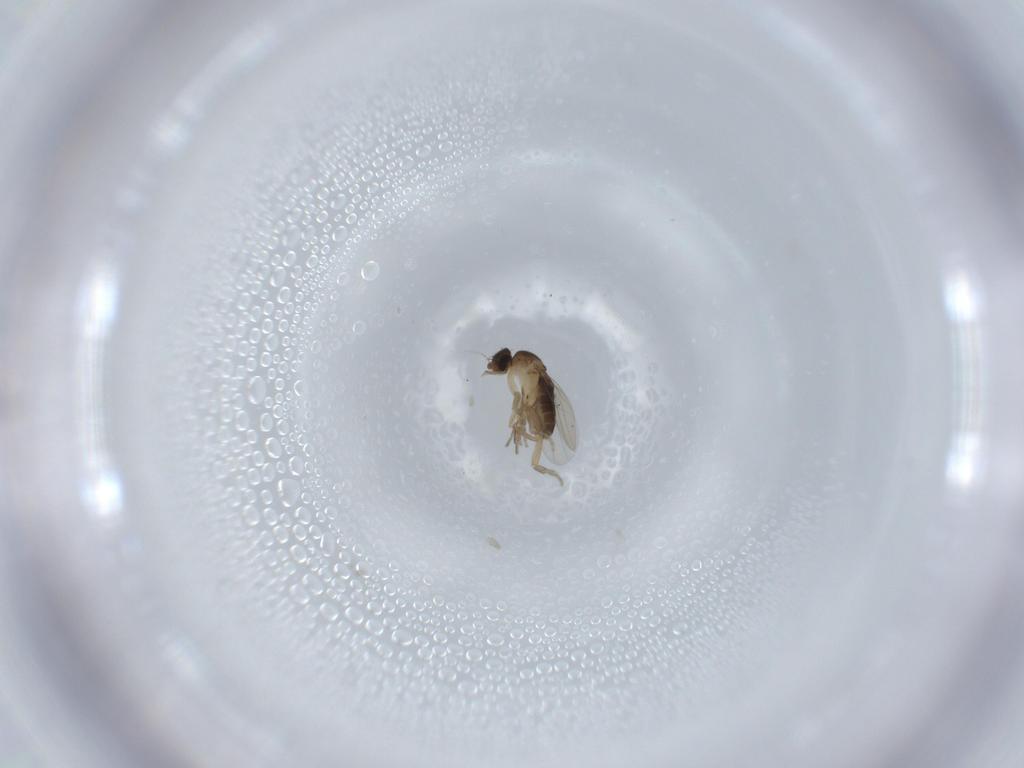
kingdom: Animalia
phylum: Arthropoda
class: Insecta
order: Diptera
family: Phoridae
